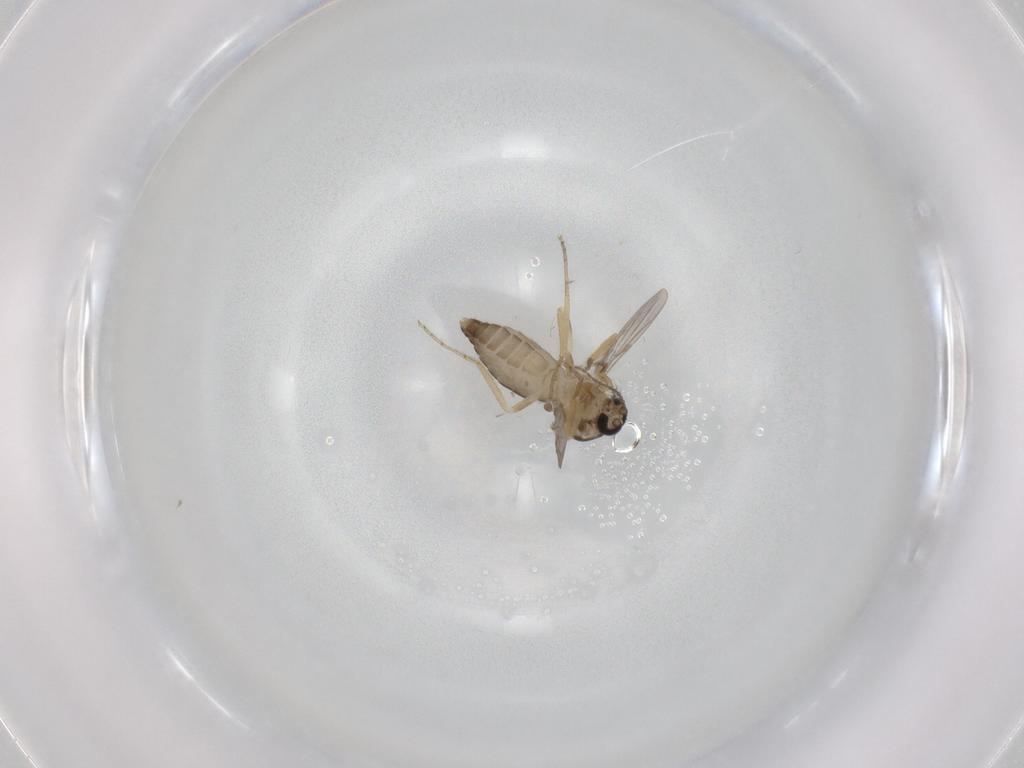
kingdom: Animalia
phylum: Arthropoda
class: Insecta
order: Diptera
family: Ceratopogonidae
